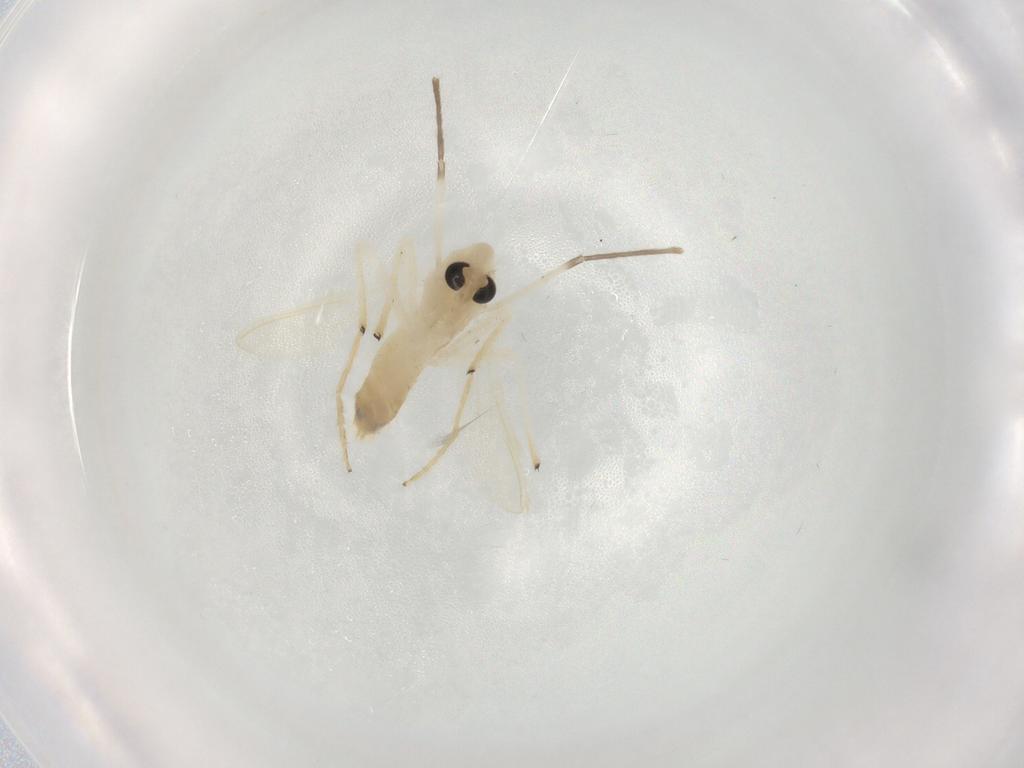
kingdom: Animalia
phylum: Arthropoda
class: Insecta
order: Diptera
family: Chironomidae
